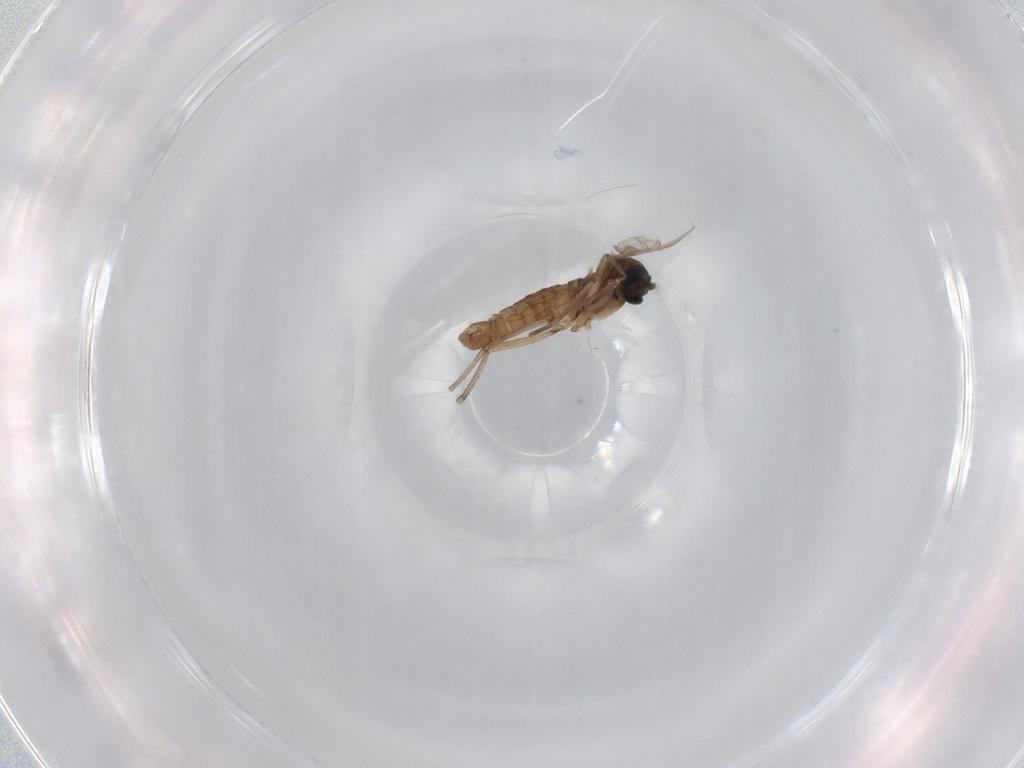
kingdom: Animalia
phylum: Arthropoda
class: Insecta
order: Diptera
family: Sciaridae
